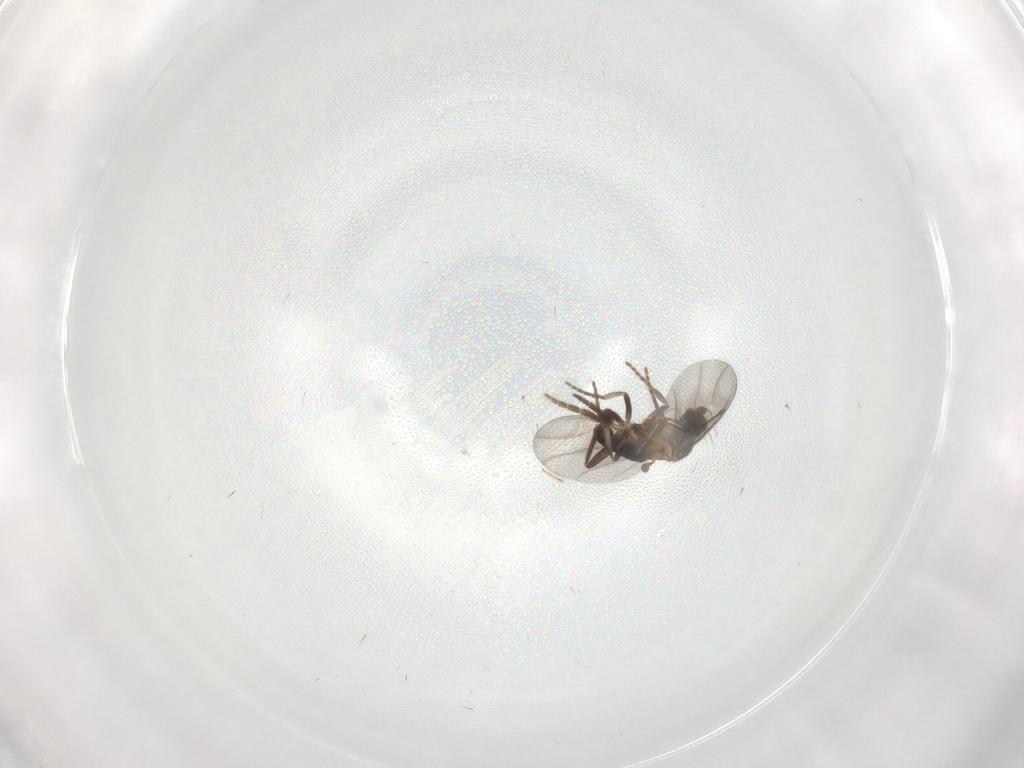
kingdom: Animalia
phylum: Arthropoda
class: Insecta
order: Diptera
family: Phoridae
